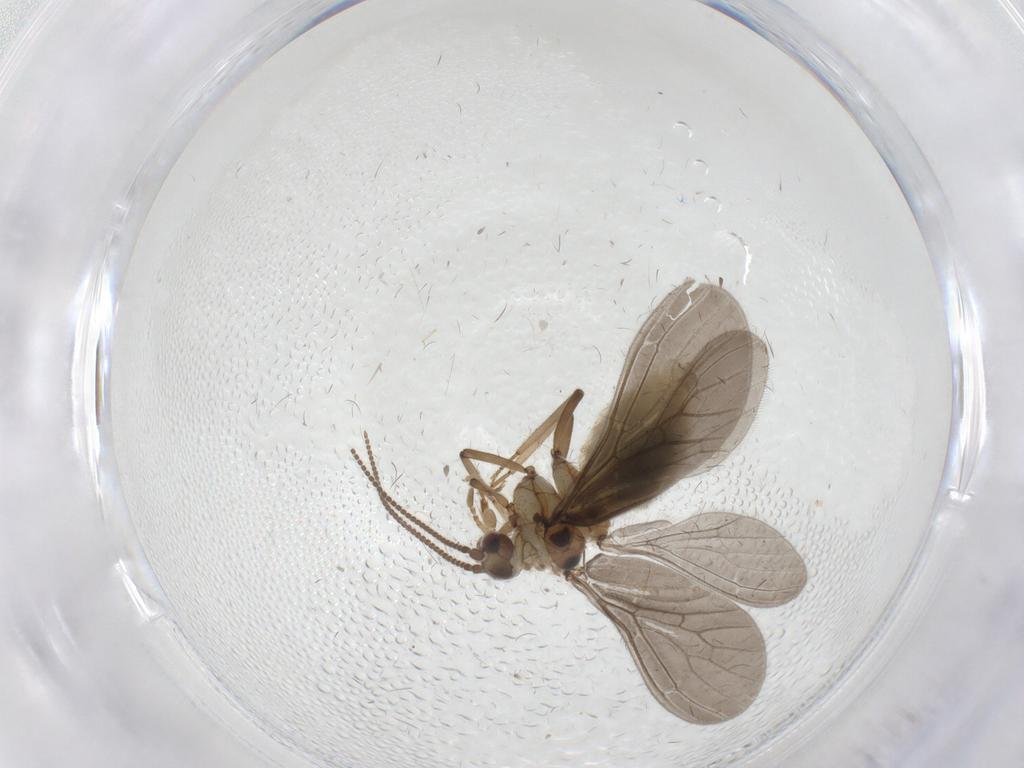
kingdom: Animalia
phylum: Arthropoda
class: Insecta
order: Neuroptera
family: Coniopterygidae
